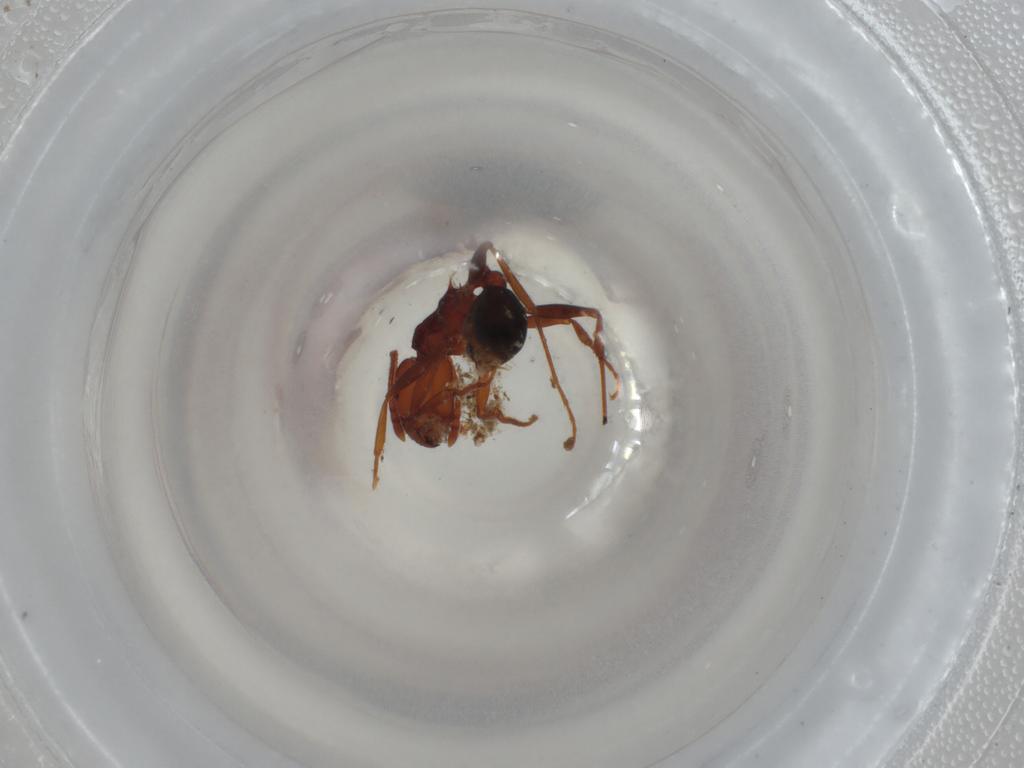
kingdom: Animalia
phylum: Arthropoda
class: Insecta
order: Hymenoptera
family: Formicidae
